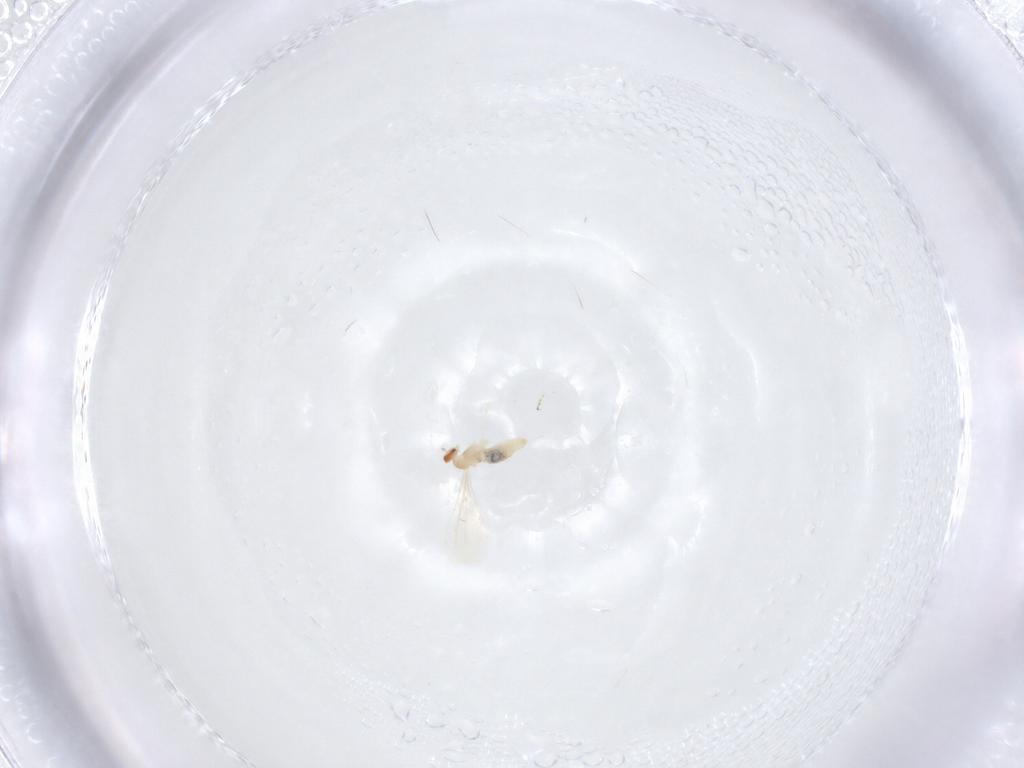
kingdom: Animalia
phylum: Arthropoda
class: Insecta
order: Diptera
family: Cecidomyiidae
